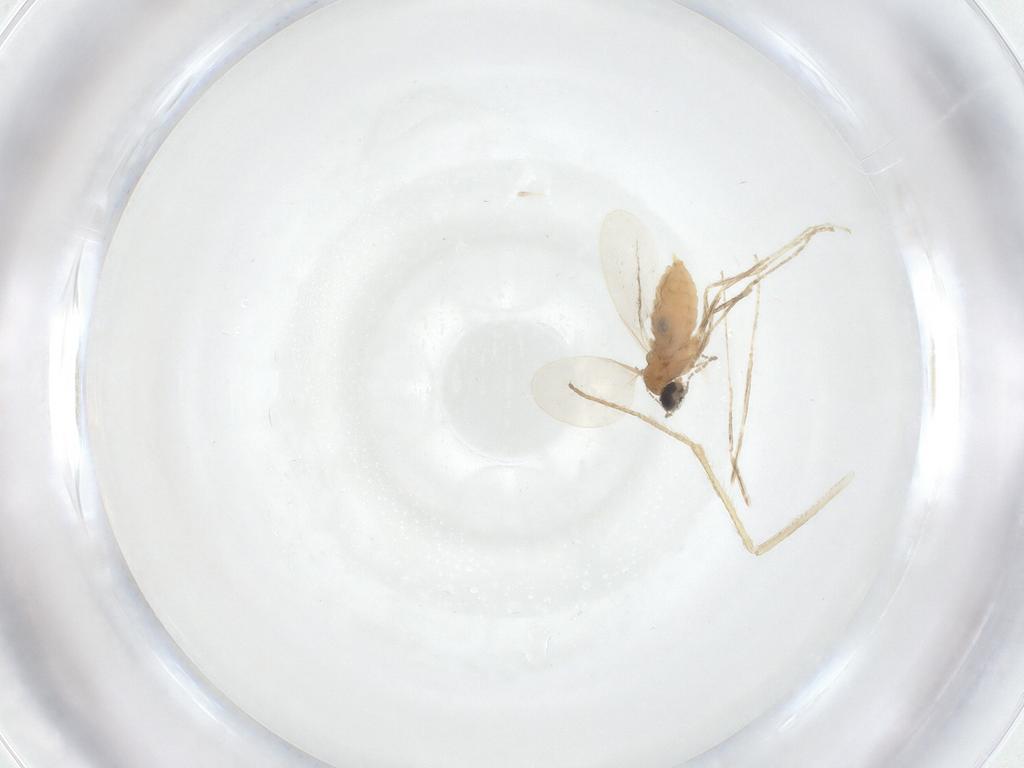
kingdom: Animalia
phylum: Arthropoda
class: Insecta
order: Diptera
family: Cecidomyiidae
